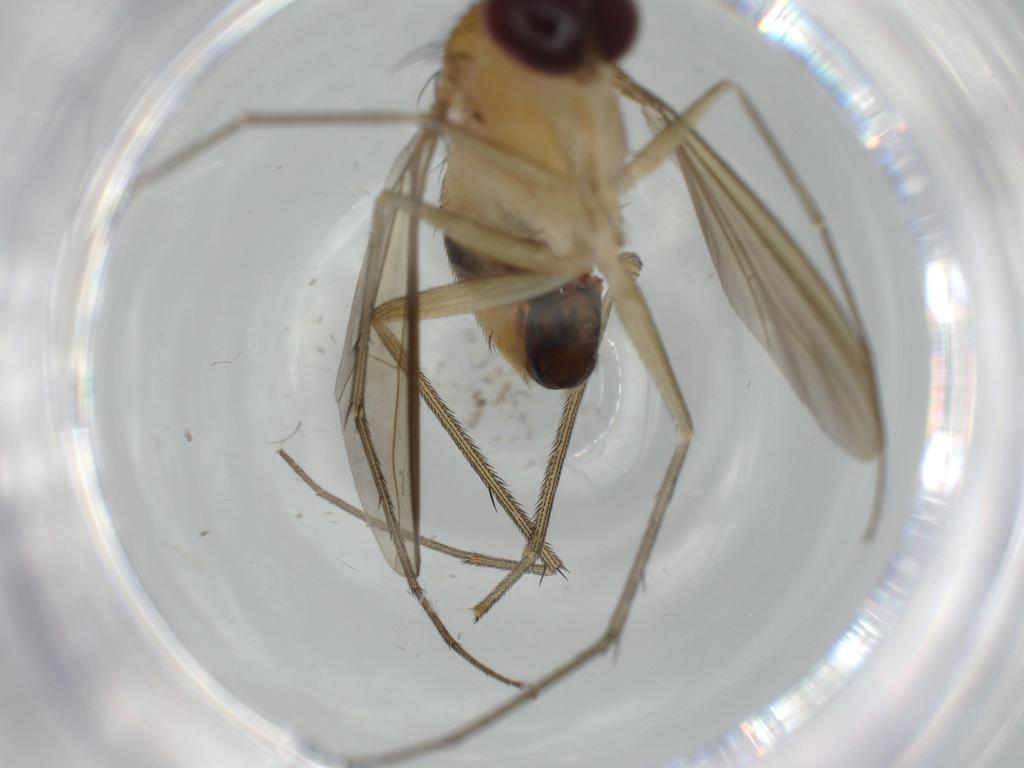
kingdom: Animalia
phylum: Arthropoda
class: Insecta
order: Diptera
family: Dolichopodidae
